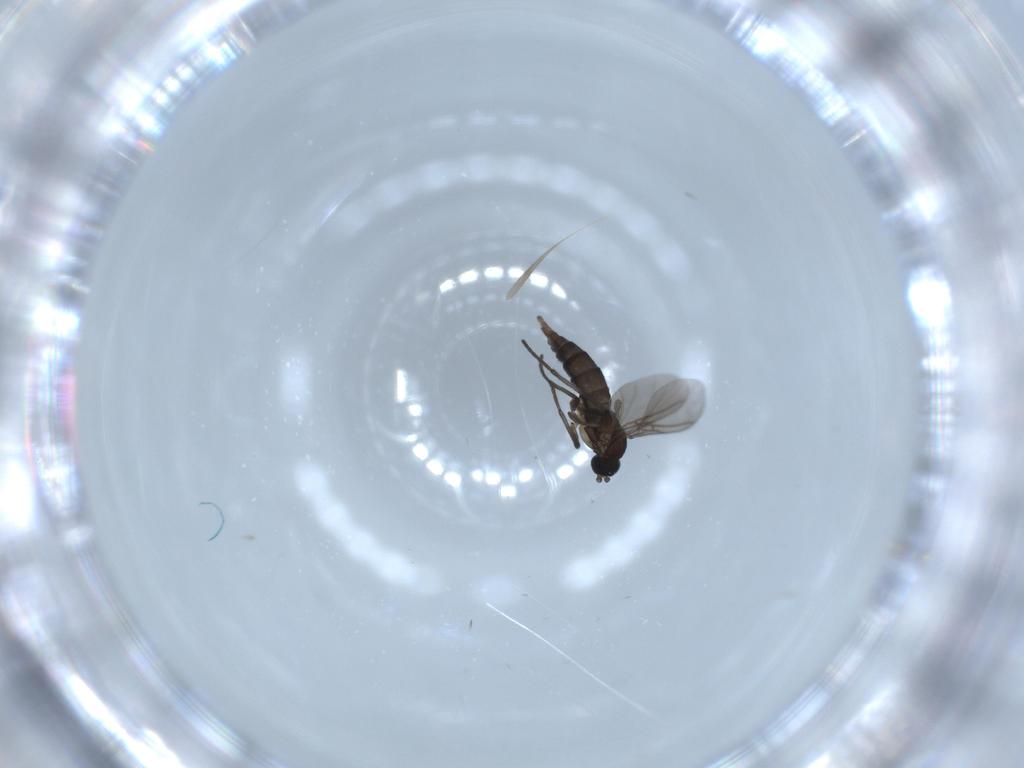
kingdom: Animalia
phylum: Arthropoda
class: Insecta
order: Diptera
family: Sciaridae
